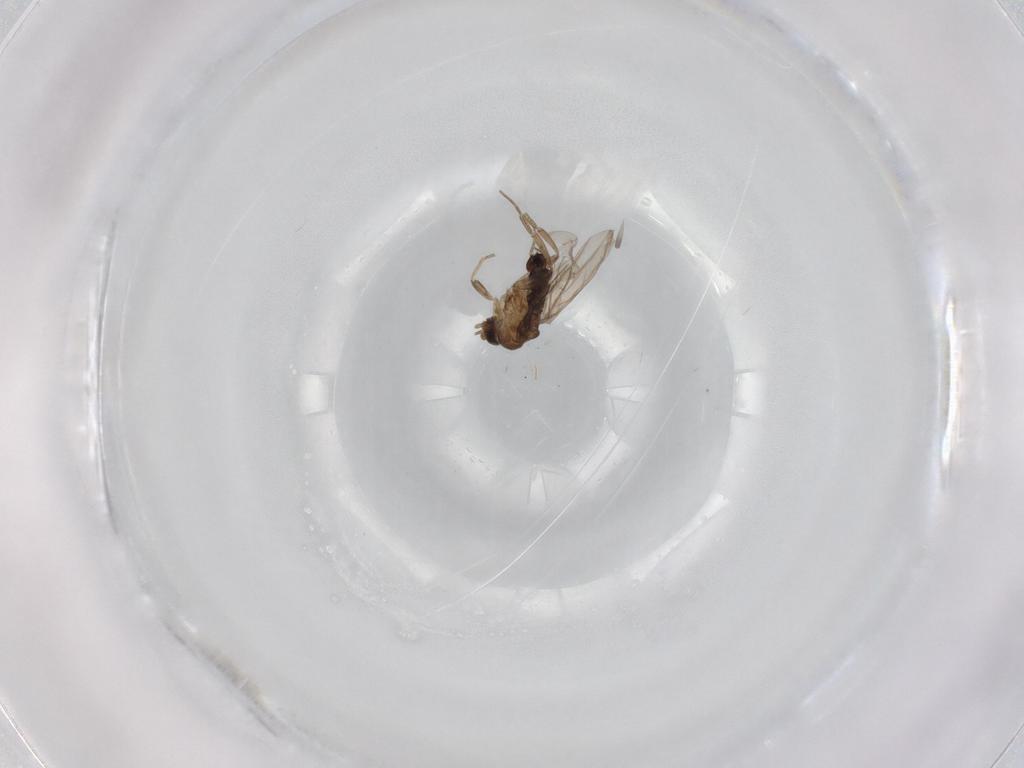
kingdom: Animalia
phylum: Arthropoda
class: Insecta
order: Diptera
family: Phoridae
